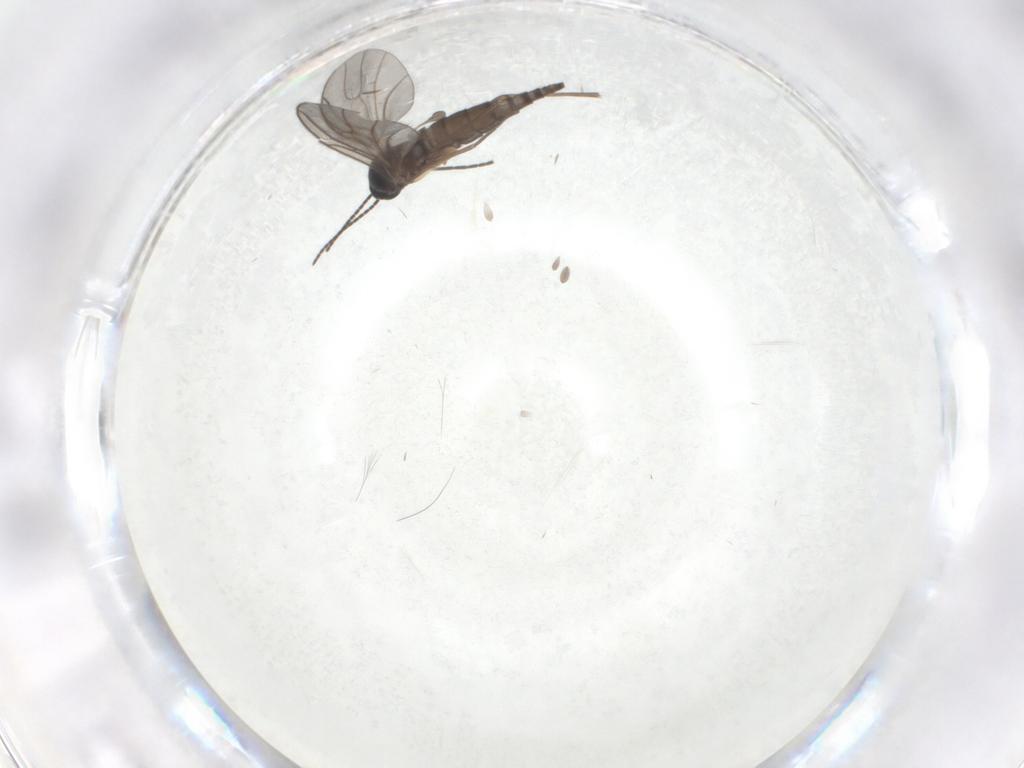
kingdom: Animalia
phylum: Arthropoda
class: Insecta
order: Diptera
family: Sciaridae
